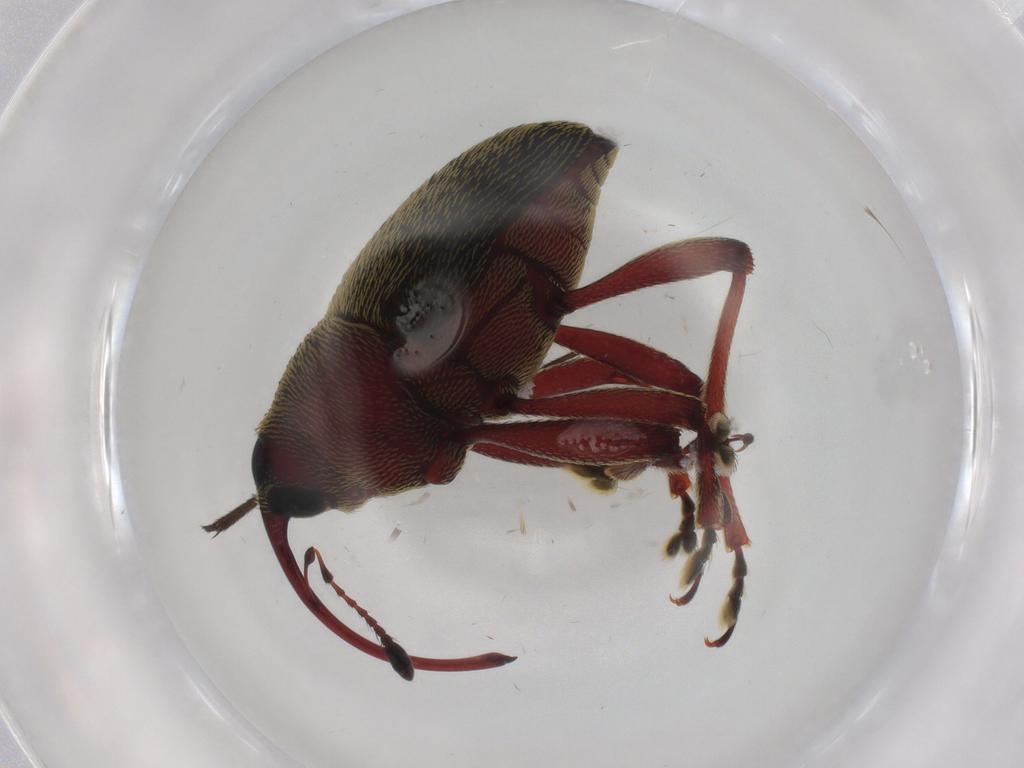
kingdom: Animalia
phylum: Arthropoda
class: Insecta
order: Coleoptera
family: Curculionidae
